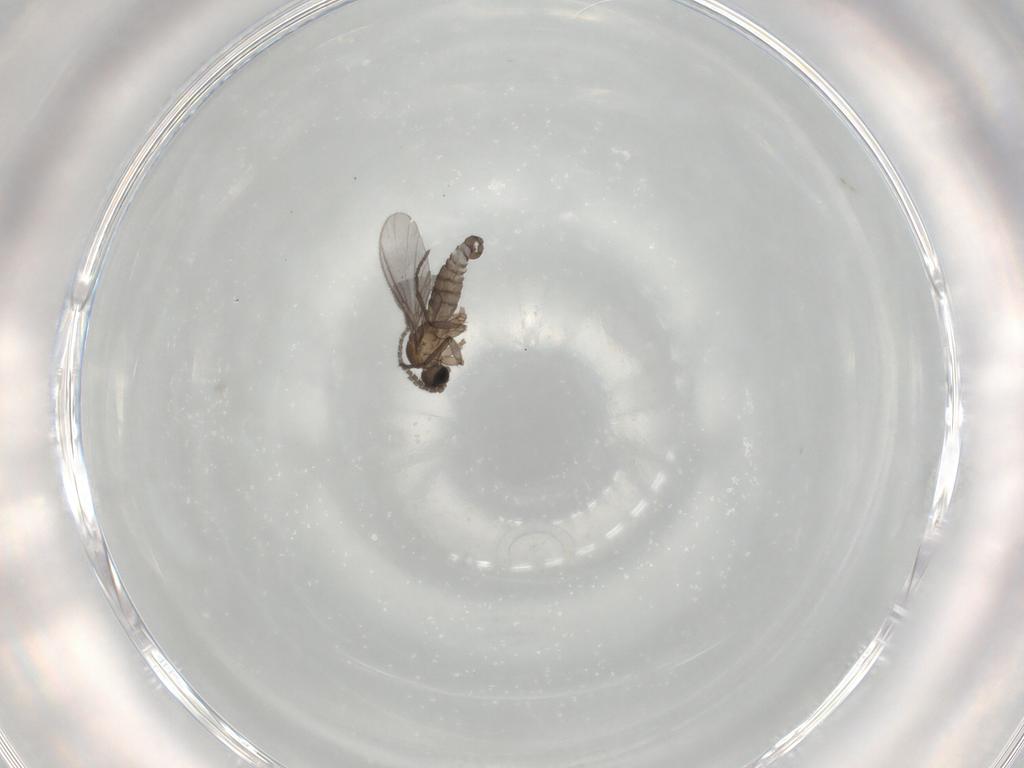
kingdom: Animalia
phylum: Arthropoda
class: Insecta
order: Diptera
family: Sciaridae
